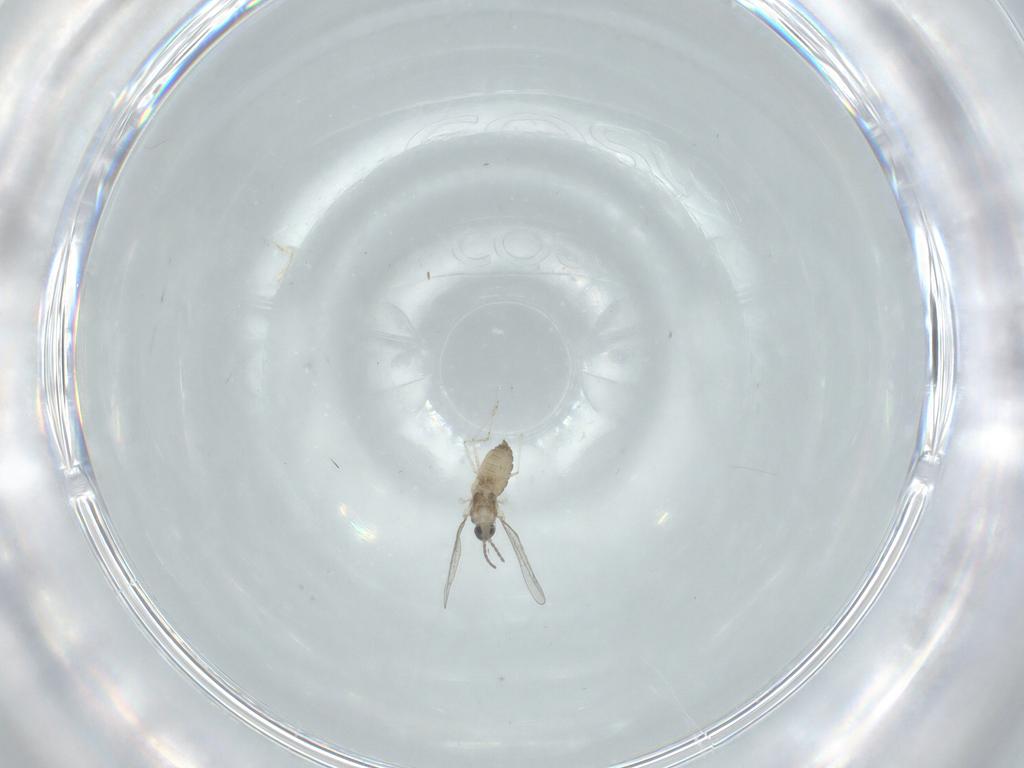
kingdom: Animalia
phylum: Arthropoda
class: Insecta
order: Diptera
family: Cecidomyiidae
